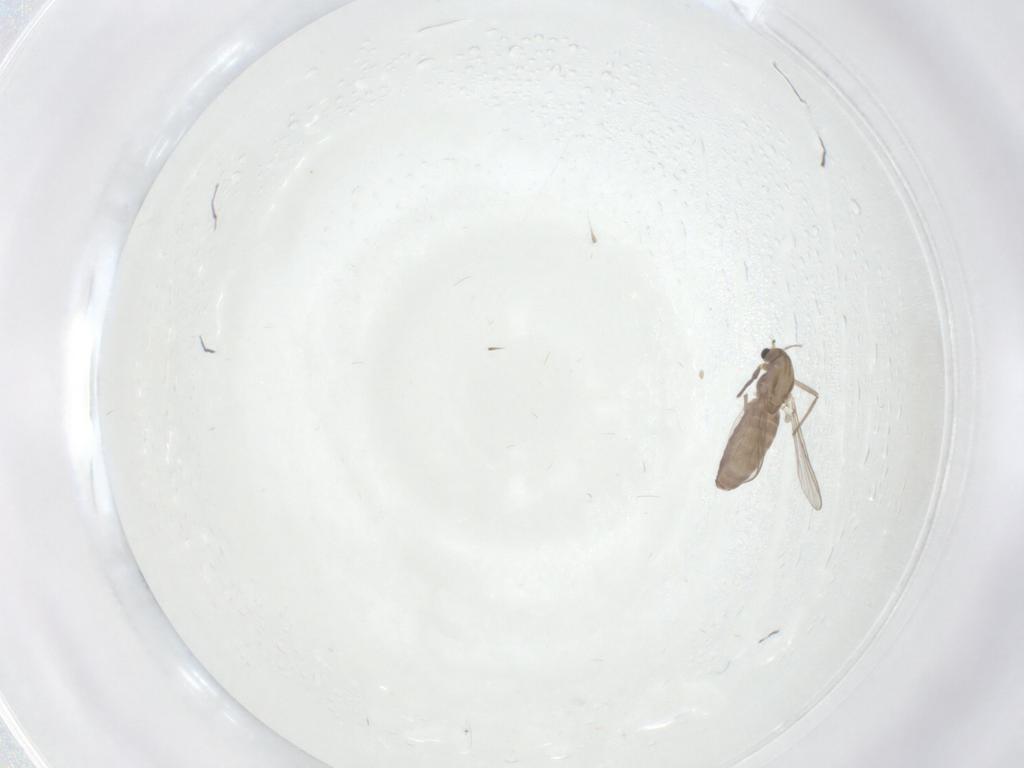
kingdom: Animalia
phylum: Arthropoda
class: Insecta
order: Diptera
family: Chironomidae
